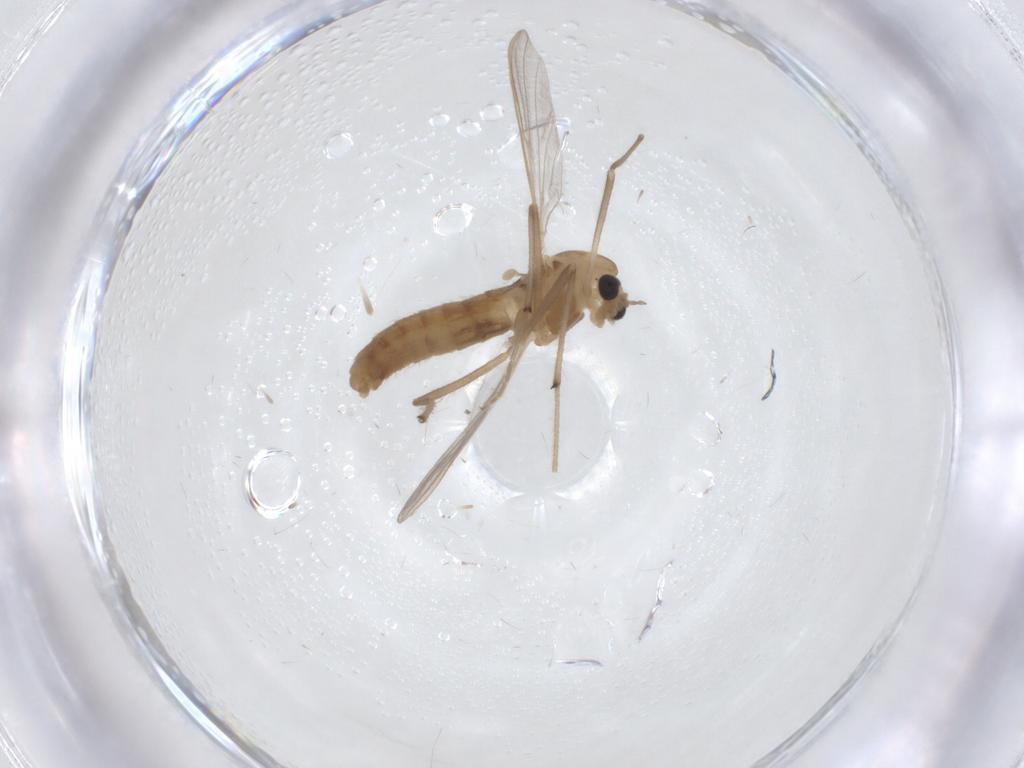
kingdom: Animalia
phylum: Arthropoda
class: Insecta
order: Diptera
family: Chironomidae
